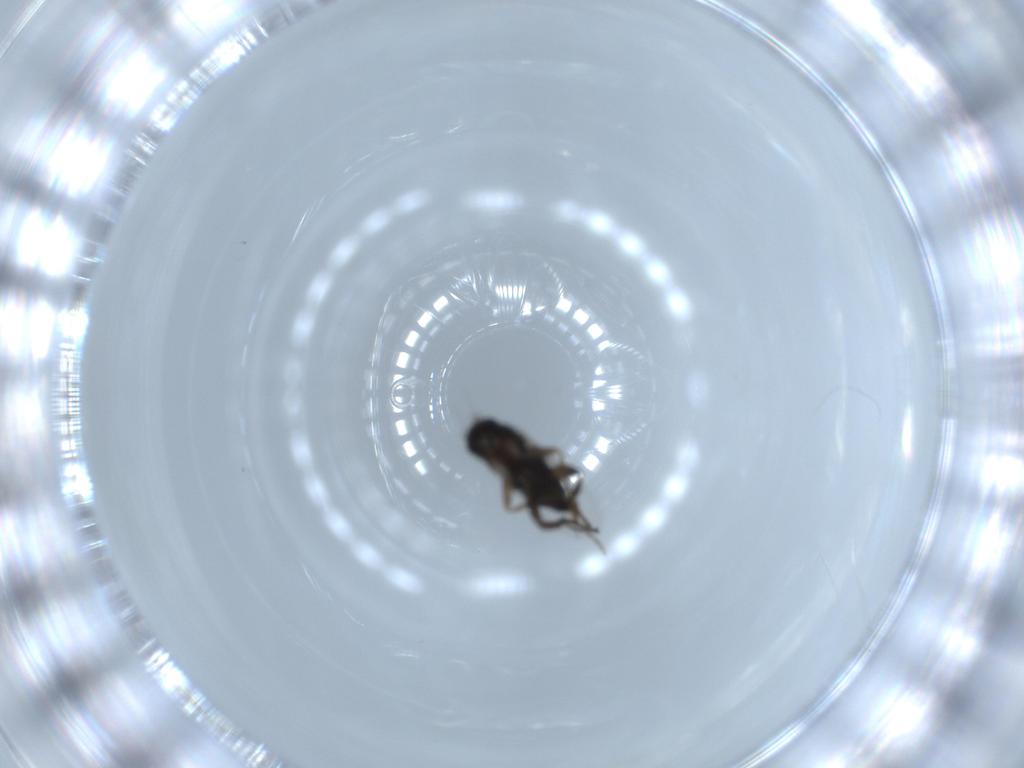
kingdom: Animalia
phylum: Arthropoda
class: Insecta
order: Diptera
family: Phoridae
